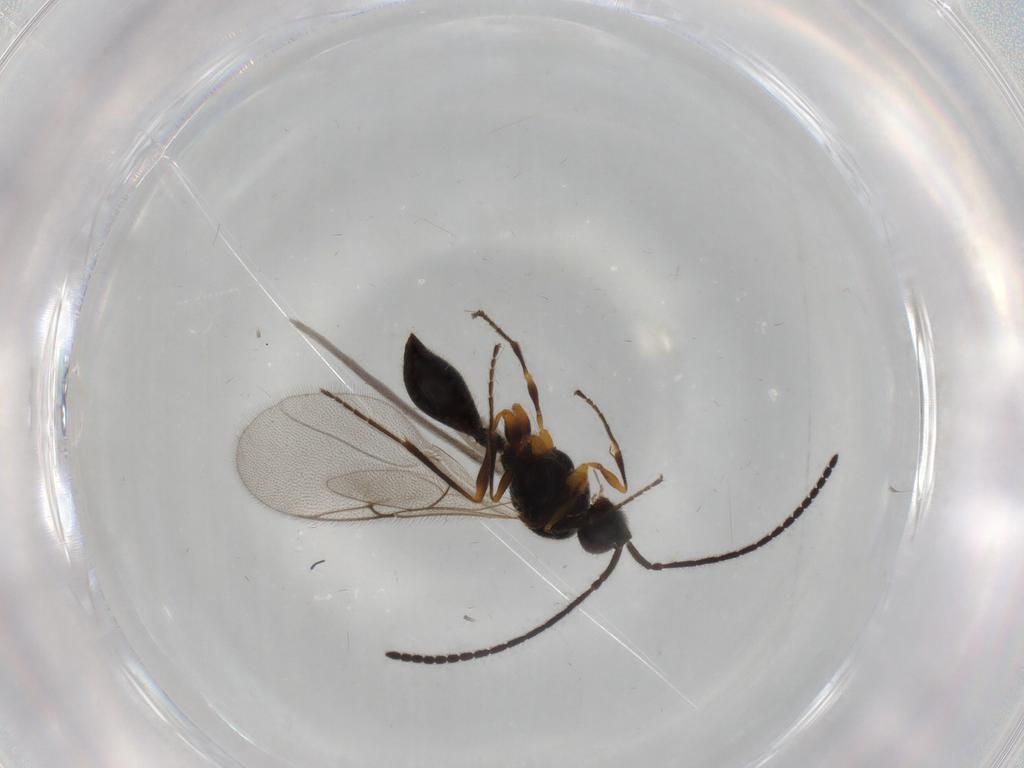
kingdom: Animalia
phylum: Arthropoda
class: Insecta
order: Hymenoptera
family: Diapriidae
